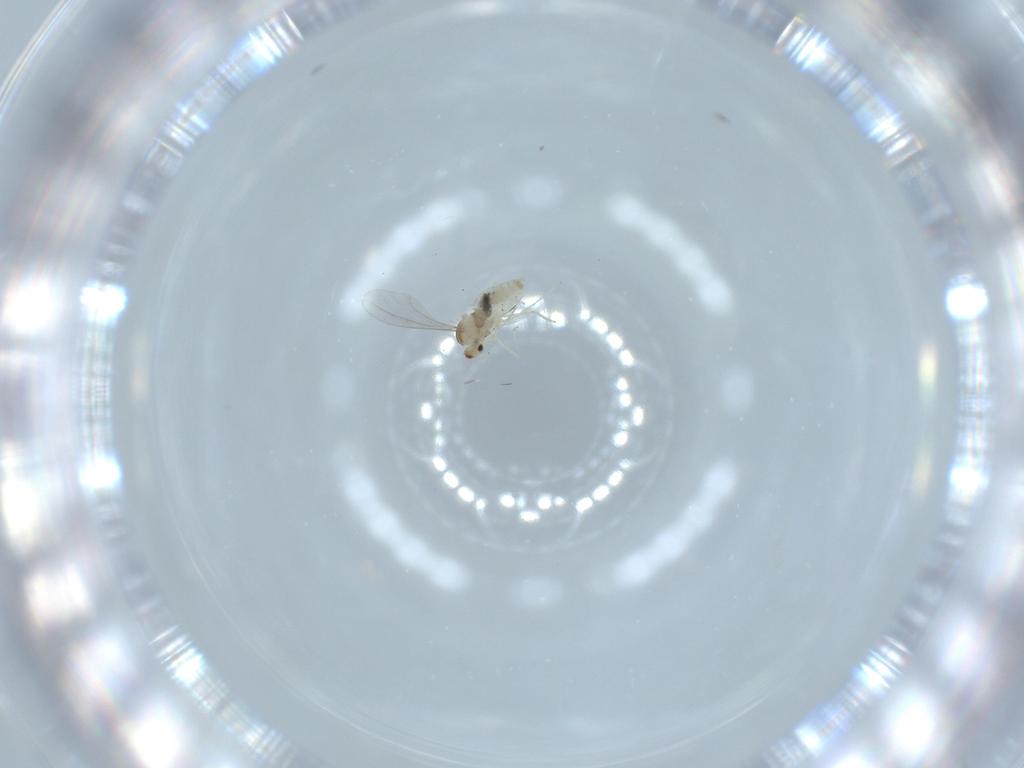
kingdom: Animalia
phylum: Arthropoda
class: Insecta
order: Diptera
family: Cecidomyiidae
